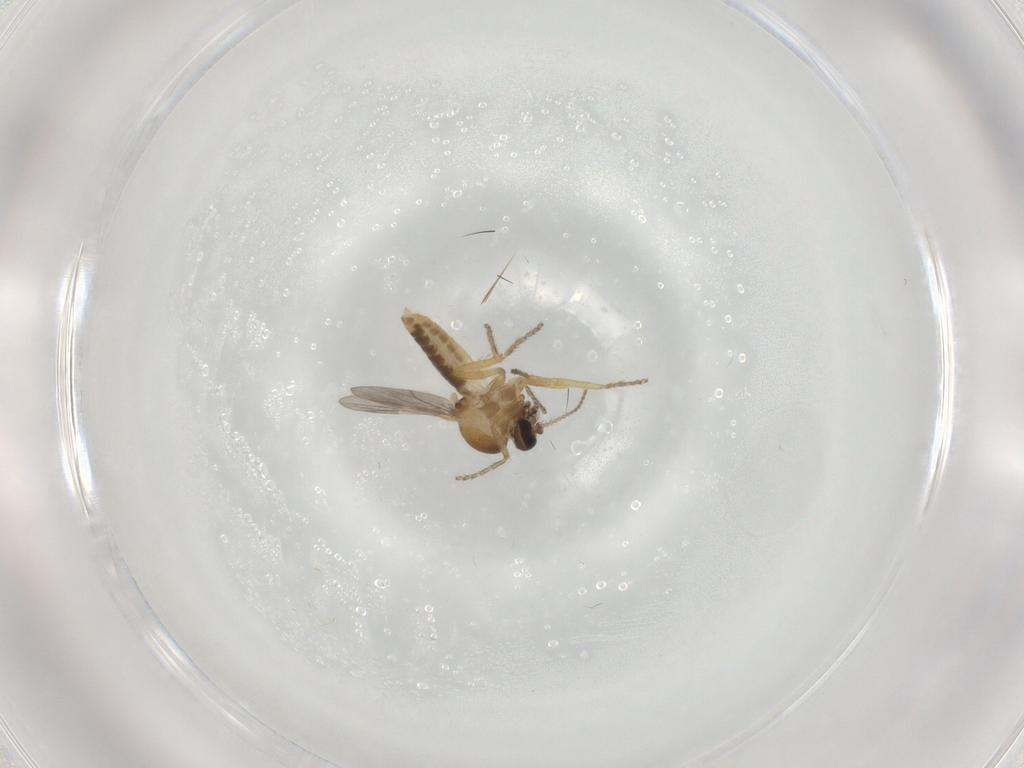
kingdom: Animalia
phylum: Arthropoda
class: Insecta
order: Diptera
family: Ceratopogonidae
